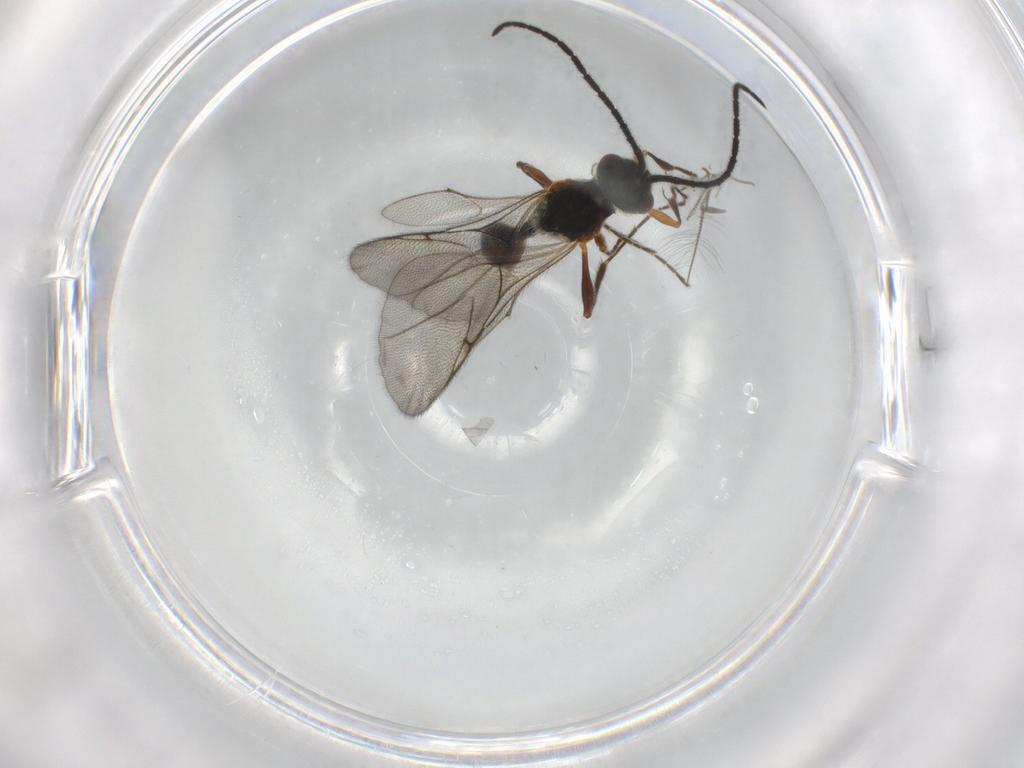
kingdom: Animalia
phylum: Arthropoda
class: Insecta
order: Hymenoptera
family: Diapriidae
